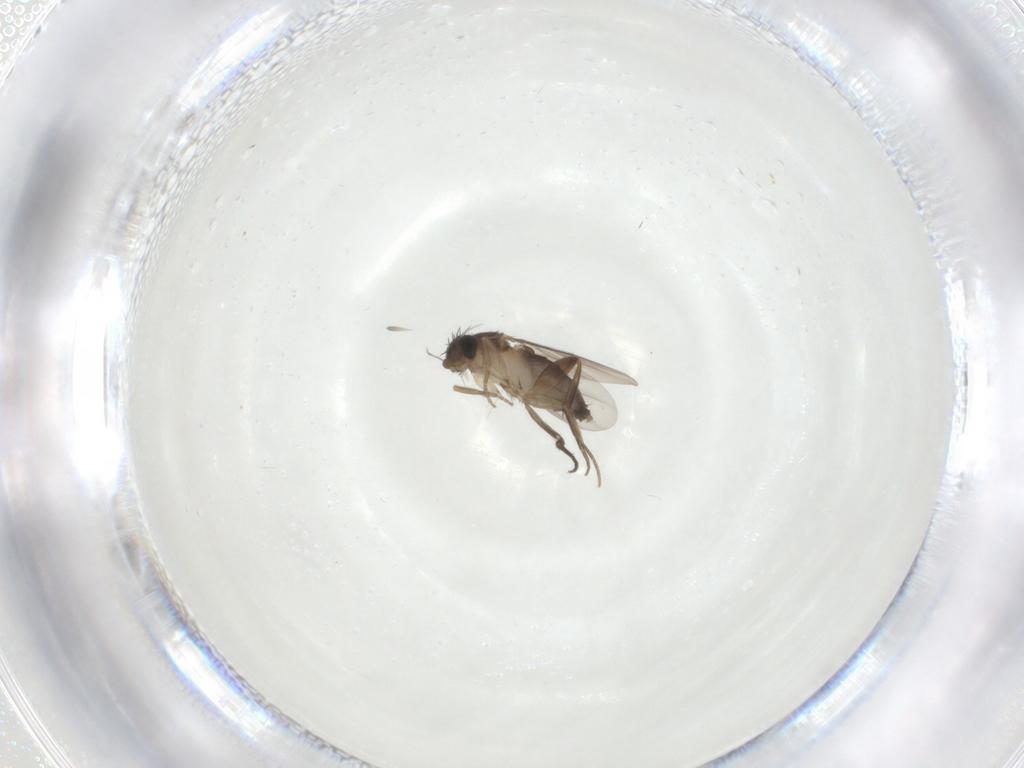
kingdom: Animalia
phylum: Arthropoda
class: Insecta
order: Diptera
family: Phoridae
